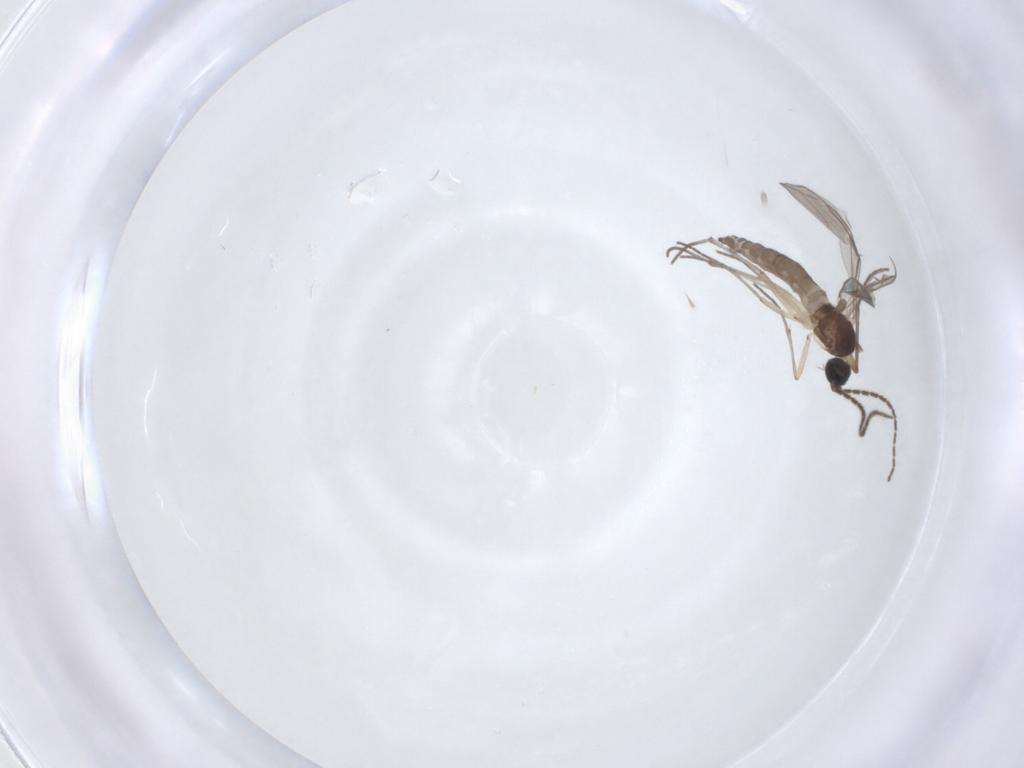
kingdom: Animalia
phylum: Arthropoda
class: Insecta
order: Diptera
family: Sciaridae
